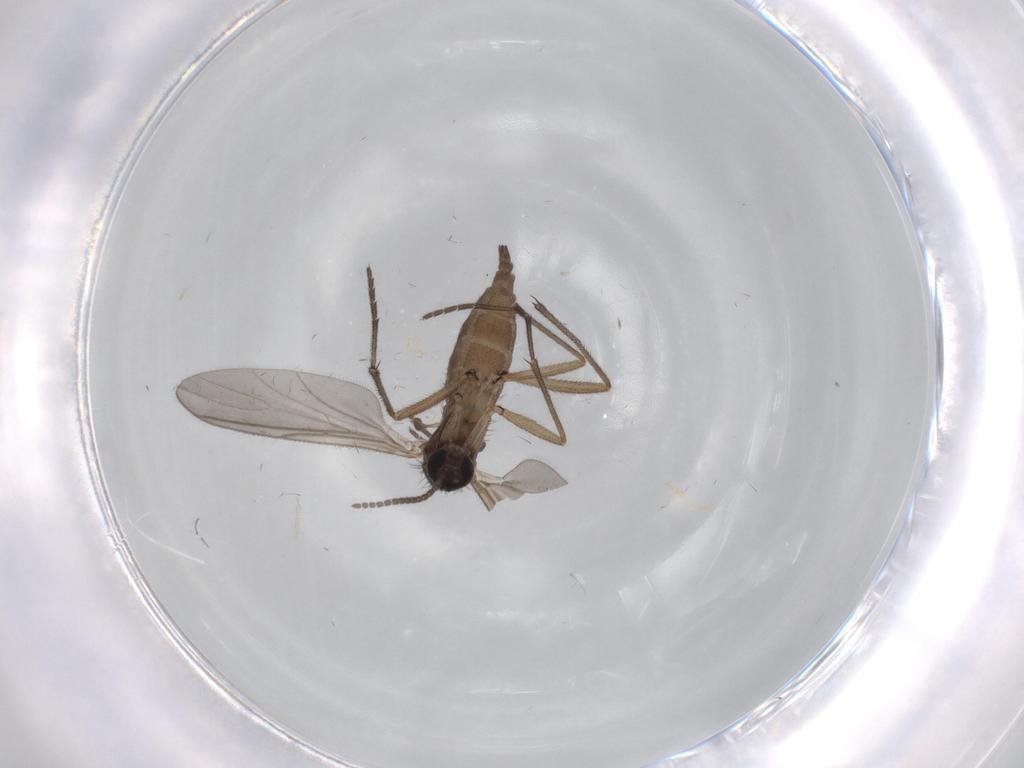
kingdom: Animalia
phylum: Arthropoda
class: Insecta
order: Diptera
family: Sciaridae
